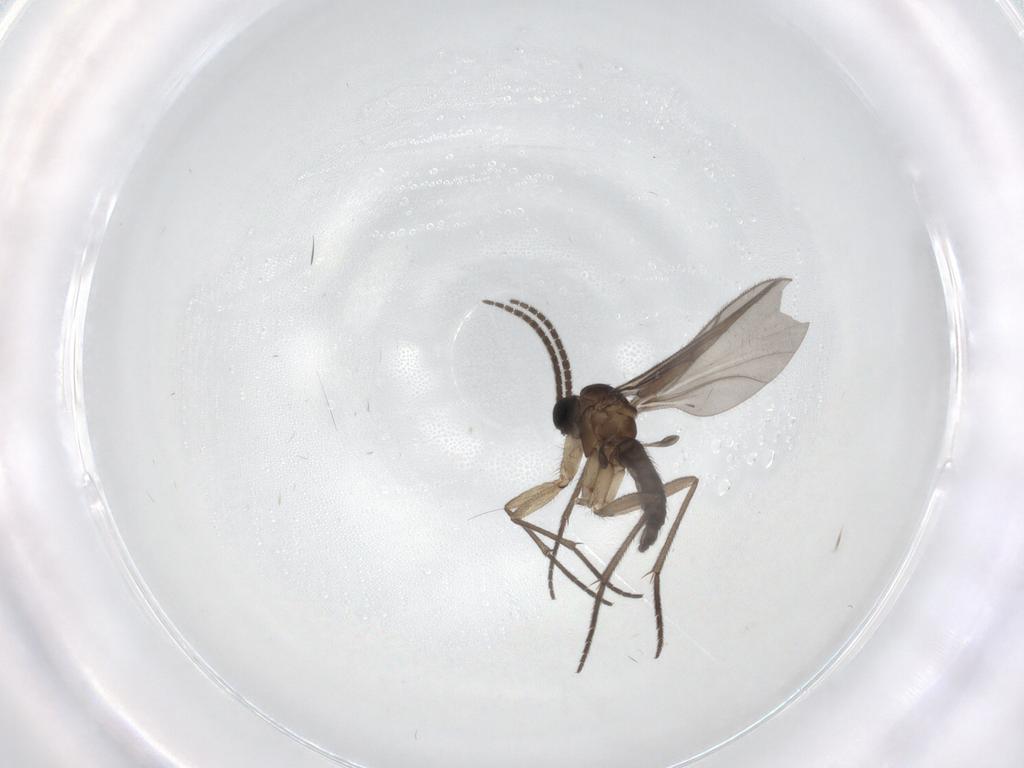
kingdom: Animalia
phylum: Arthropoda
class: Insecta
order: Diptera
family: Sciaridae
